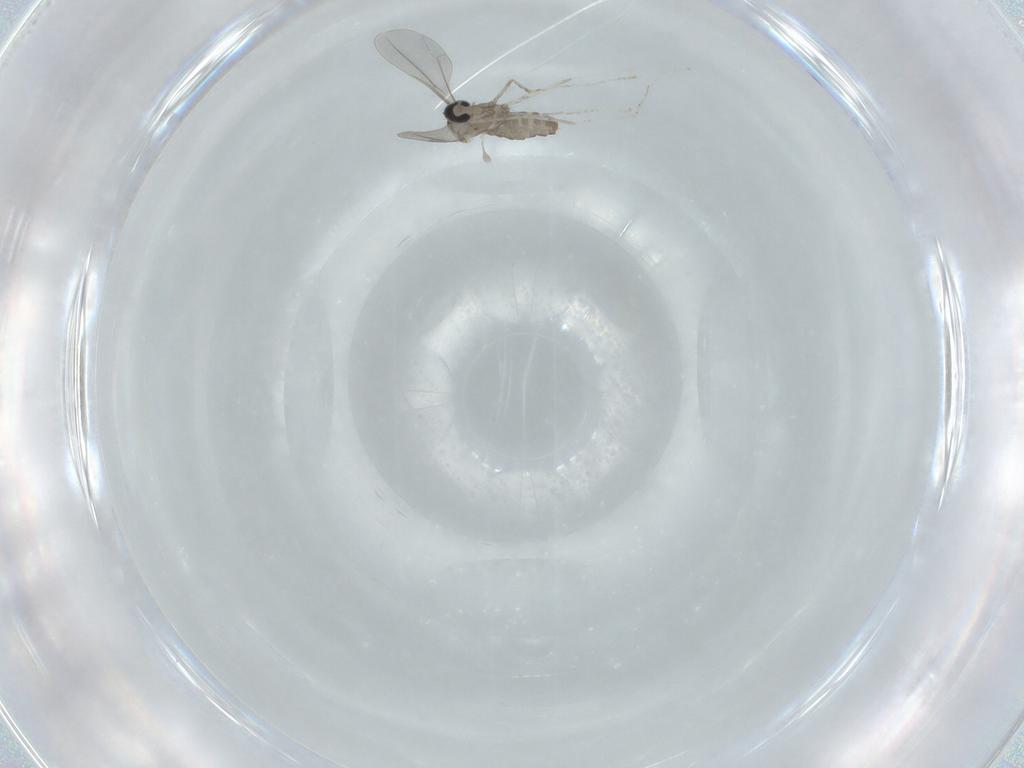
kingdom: Animalia
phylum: Arthropoda
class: Insecta
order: Diptera
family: Cecidomyiidae
